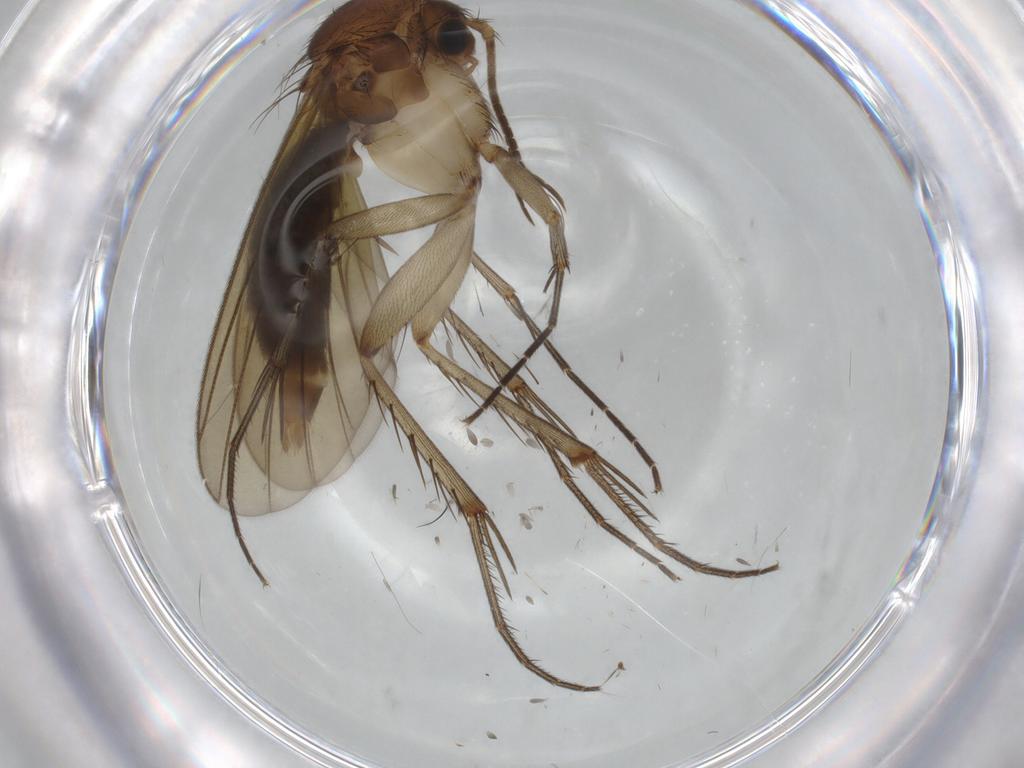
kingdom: Animalia
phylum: Arthropoda
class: Insecta
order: Diptera
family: Mycetophilidae
